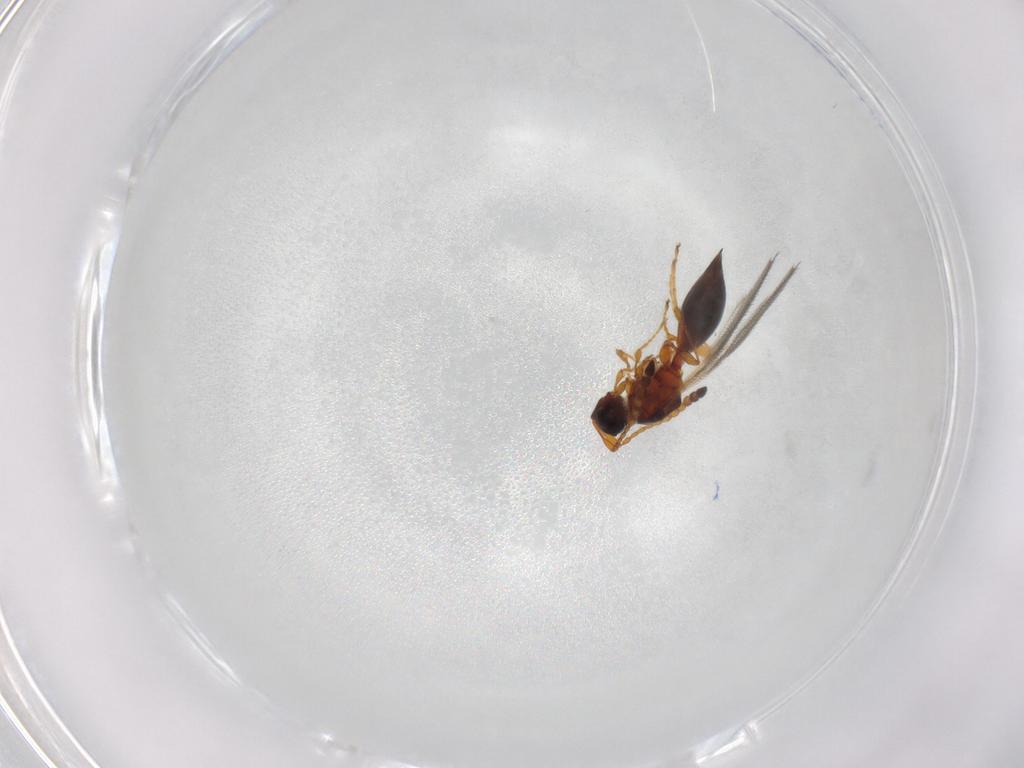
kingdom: Animalia
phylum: Arthropoda
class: Insecta
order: Hymenoptera
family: Diapriidae
